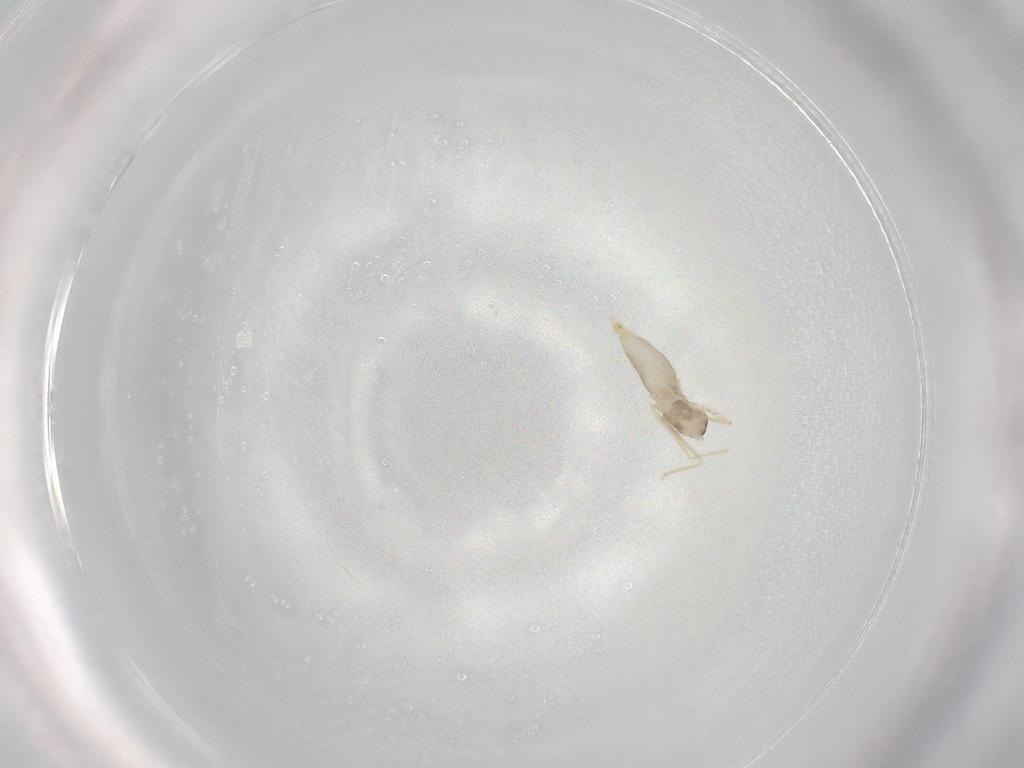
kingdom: Animalia
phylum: Arthropoda
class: Insecta
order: Diptera
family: Cecidomyiidae
